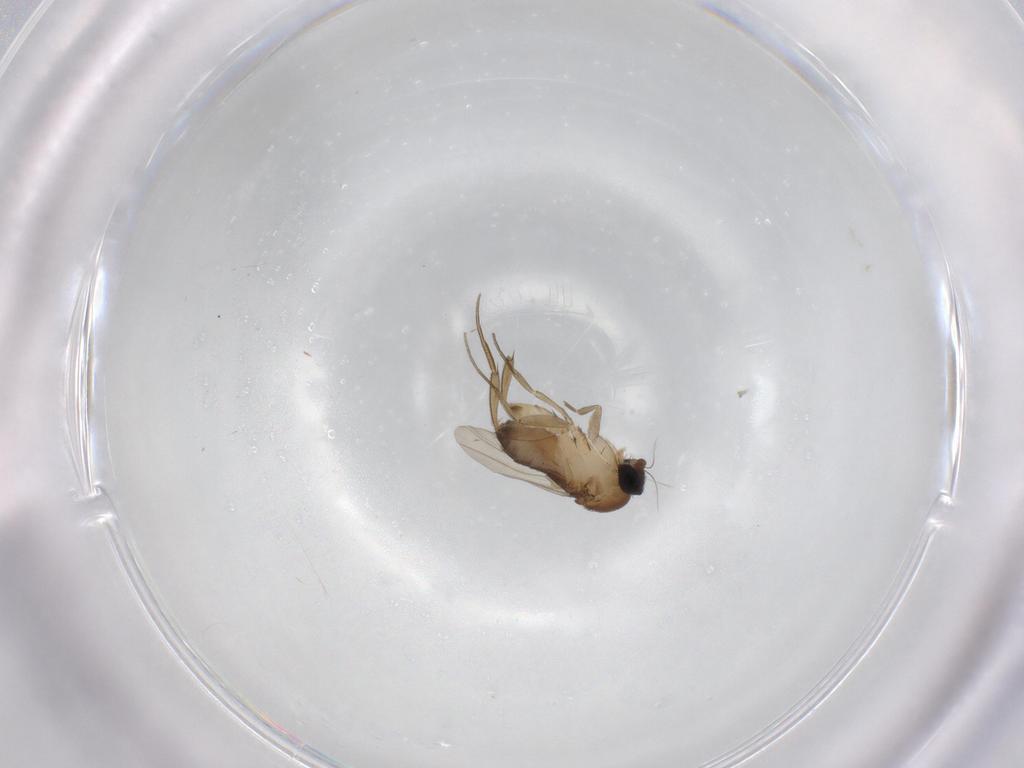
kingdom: Animalia
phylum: Arthropoda
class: Insecta
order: Diptera
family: Phoridae
